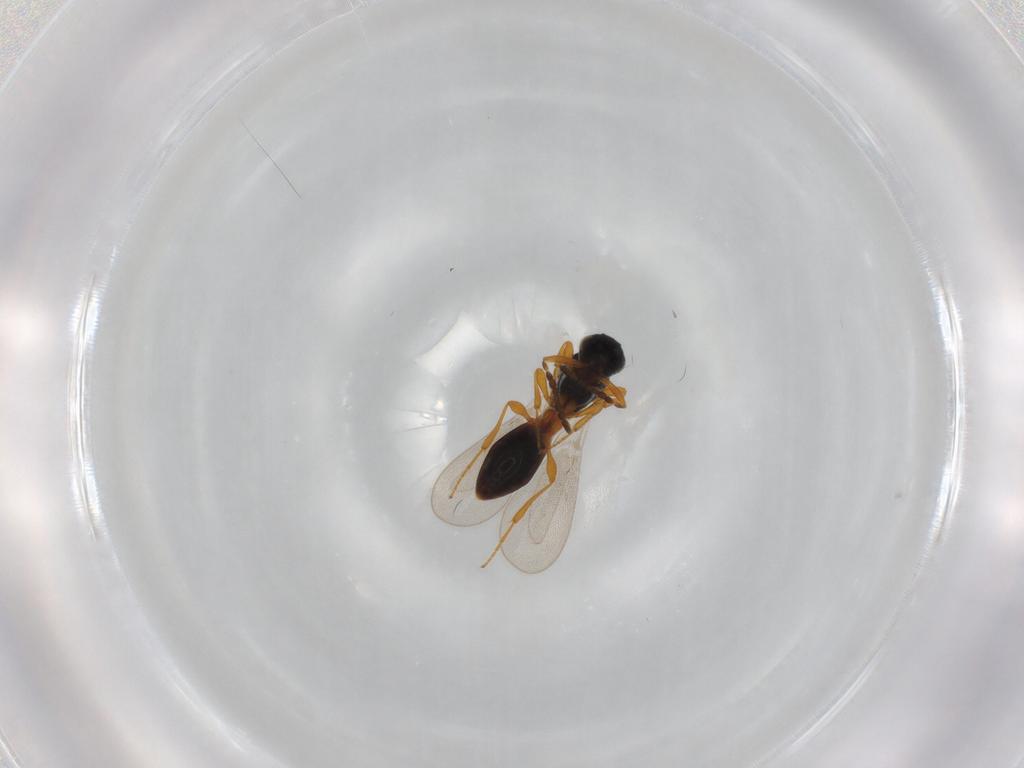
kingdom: Animalia
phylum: Arthropoda
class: Insecta
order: Hymenoptera
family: Platygastridae
